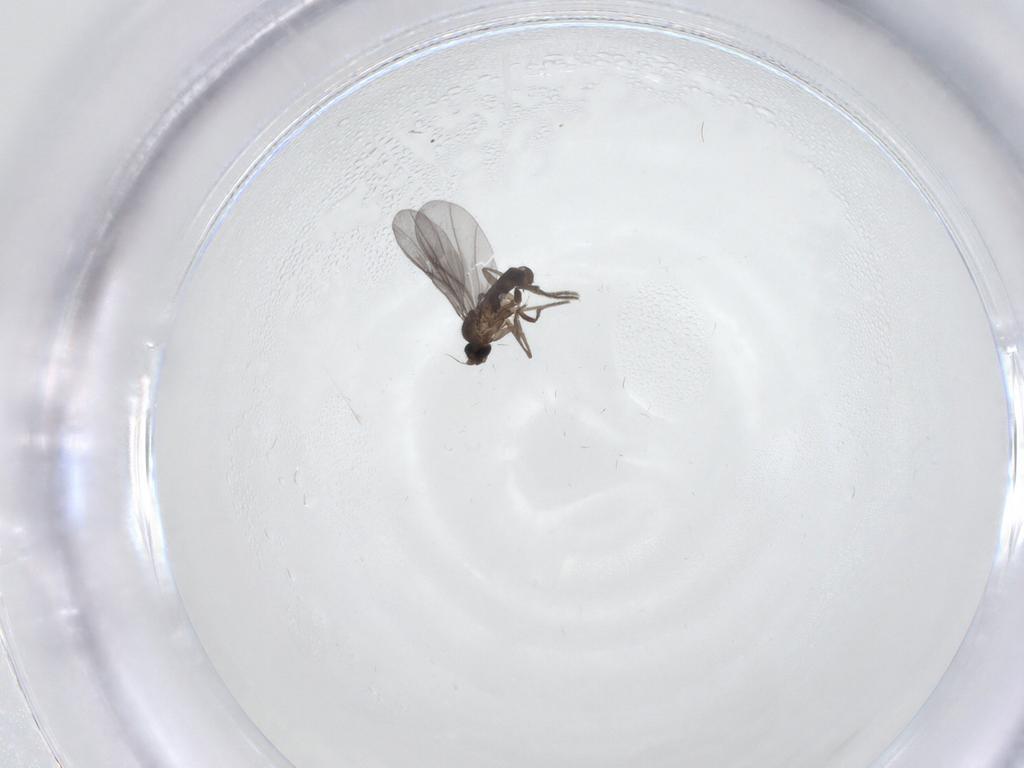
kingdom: Animalia
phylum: Arthropoda
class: Insecta
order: Diptera
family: Phoridae
